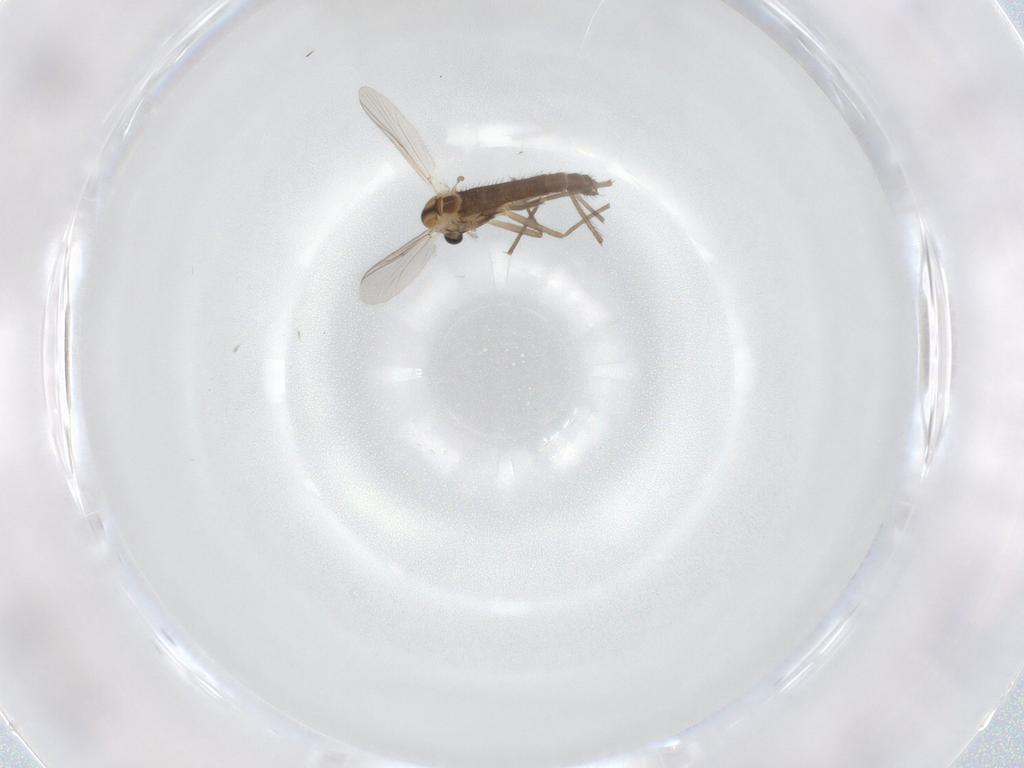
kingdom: Animalia
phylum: Arthropoda
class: Insecta
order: Diptera
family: Chironomidae
